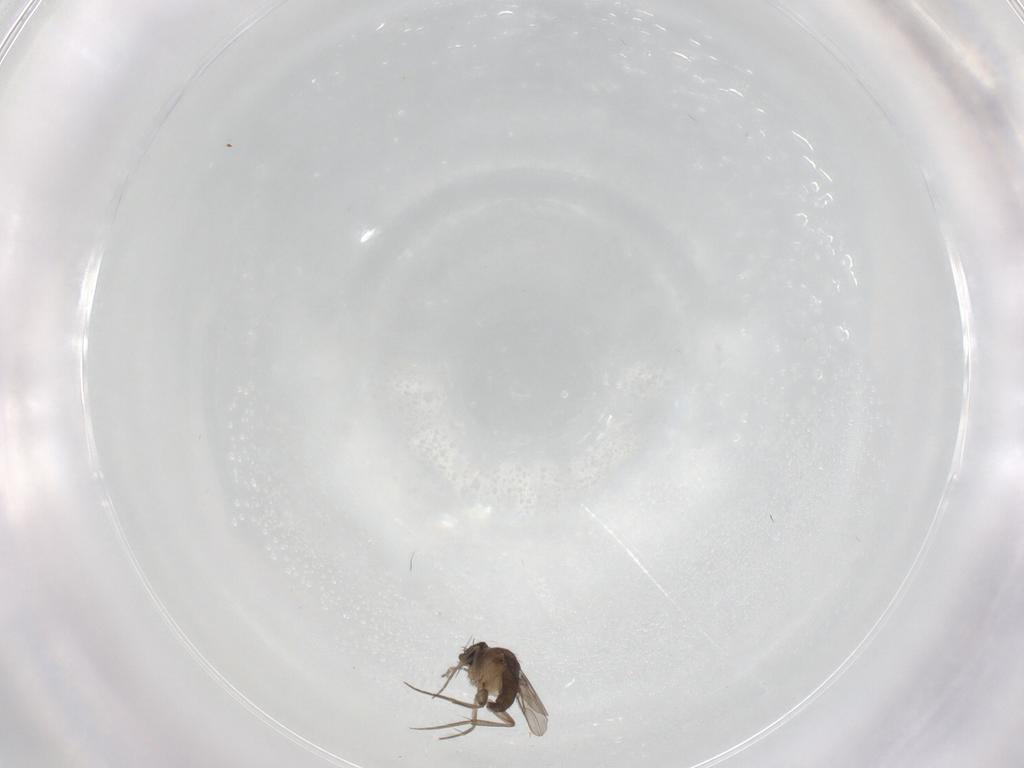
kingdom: Animalia
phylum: Arthropoda
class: Insecta
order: Diptera
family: Phoridae
